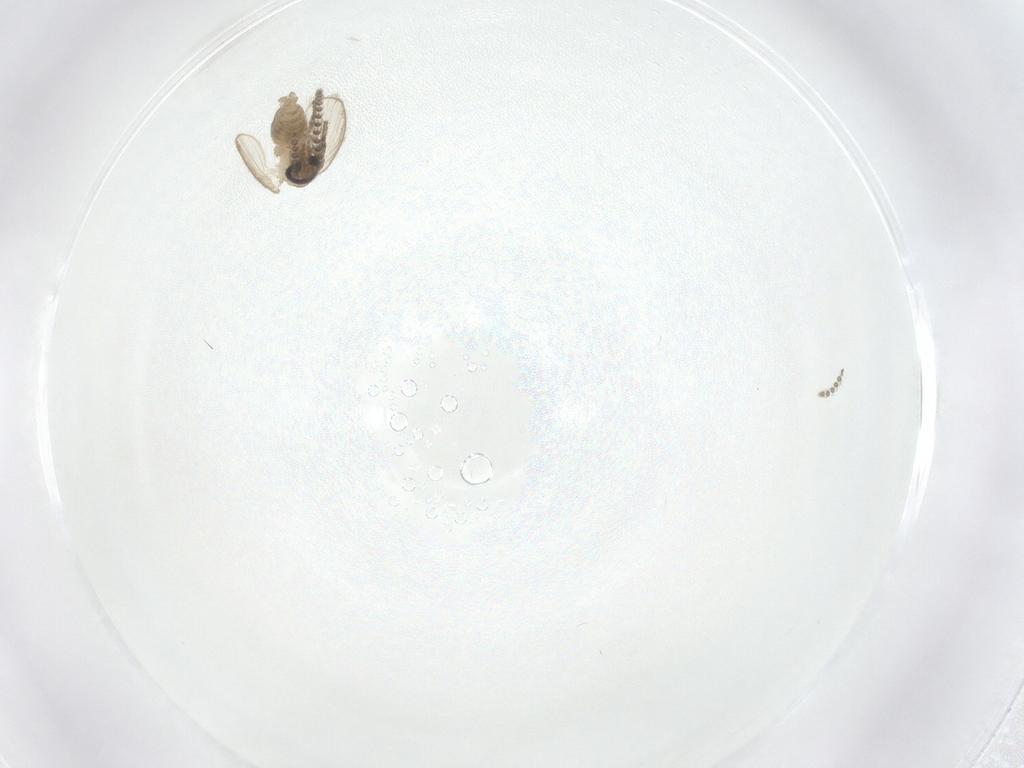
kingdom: Animalia
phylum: Arthropoda
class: Insecta
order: Diptera
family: Psychodidae
